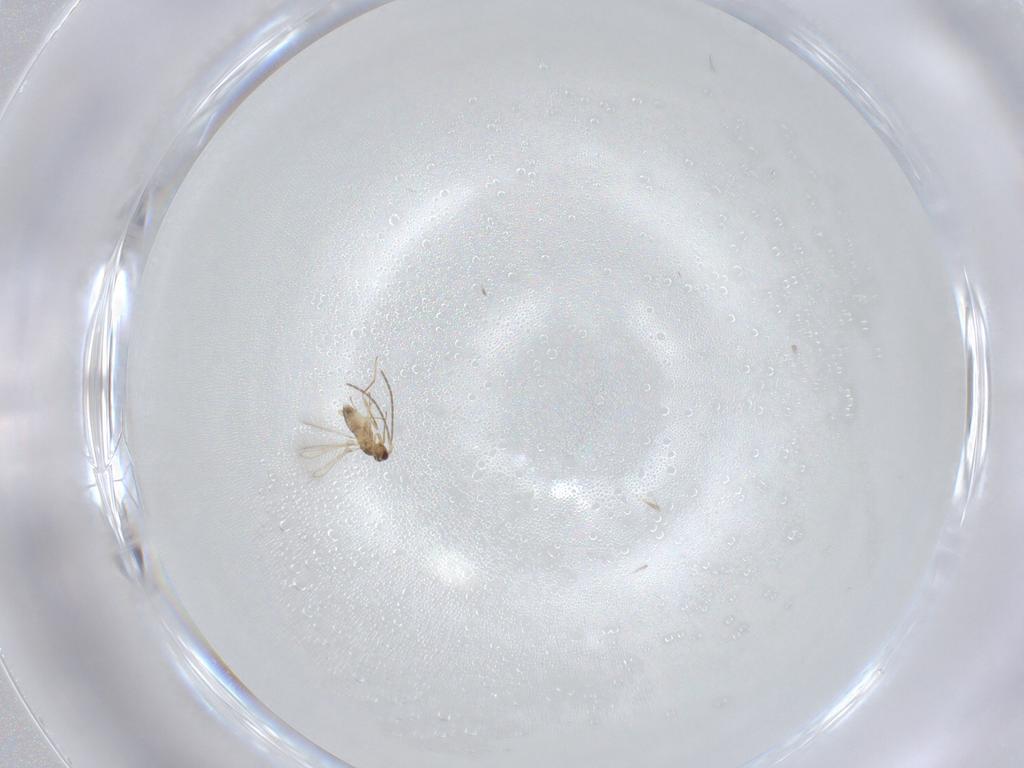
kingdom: Animalia
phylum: Arthropoda
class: Insecta
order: Hymenoptera
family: Mymaridae
